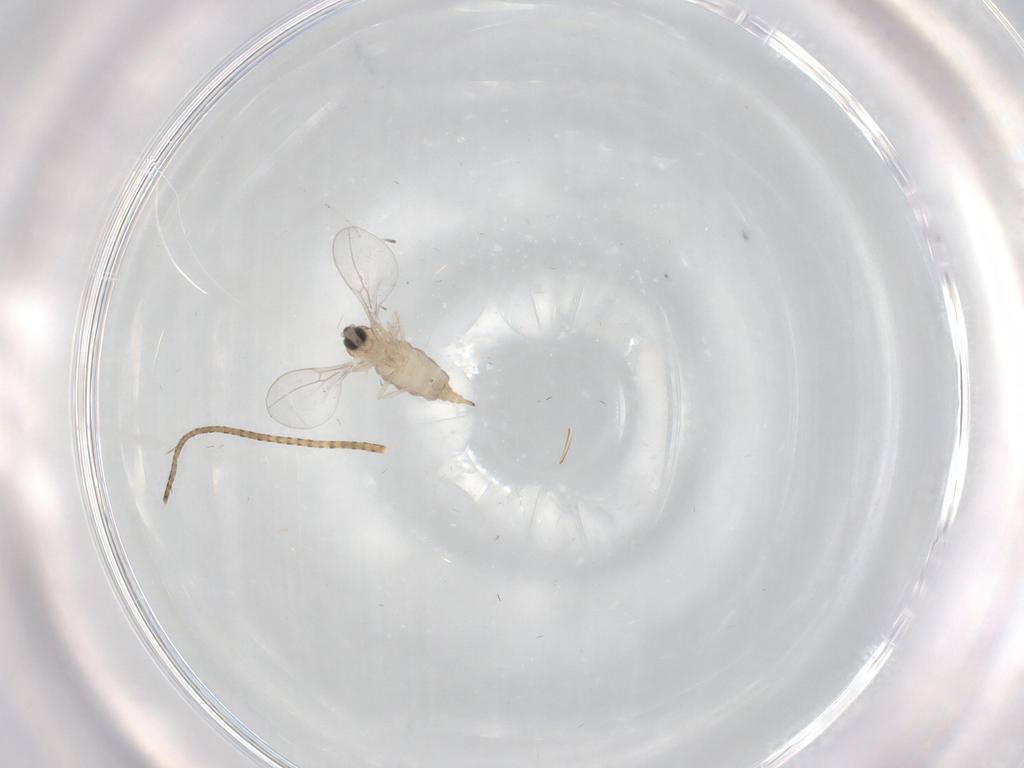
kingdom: Animalia
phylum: Arthropoda
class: Insecta
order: Diptera
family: Cecidomyiidae
